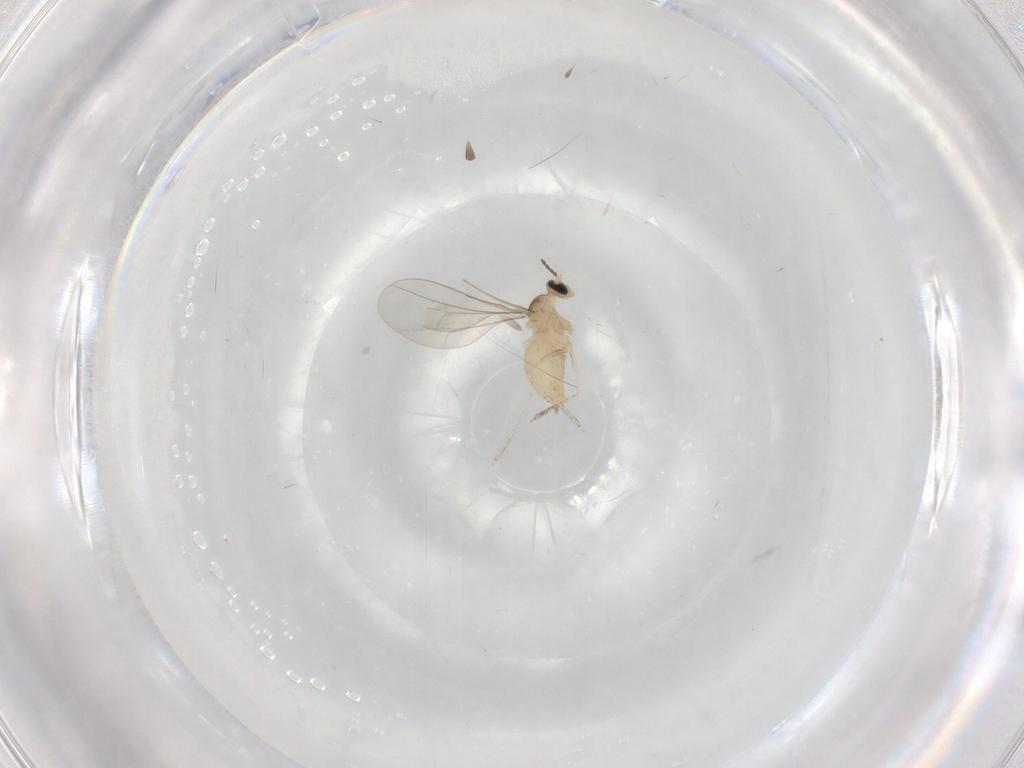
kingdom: Animalia
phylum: Arthropoda
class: Insecta
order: Diptera
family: Cecidomyiidae
